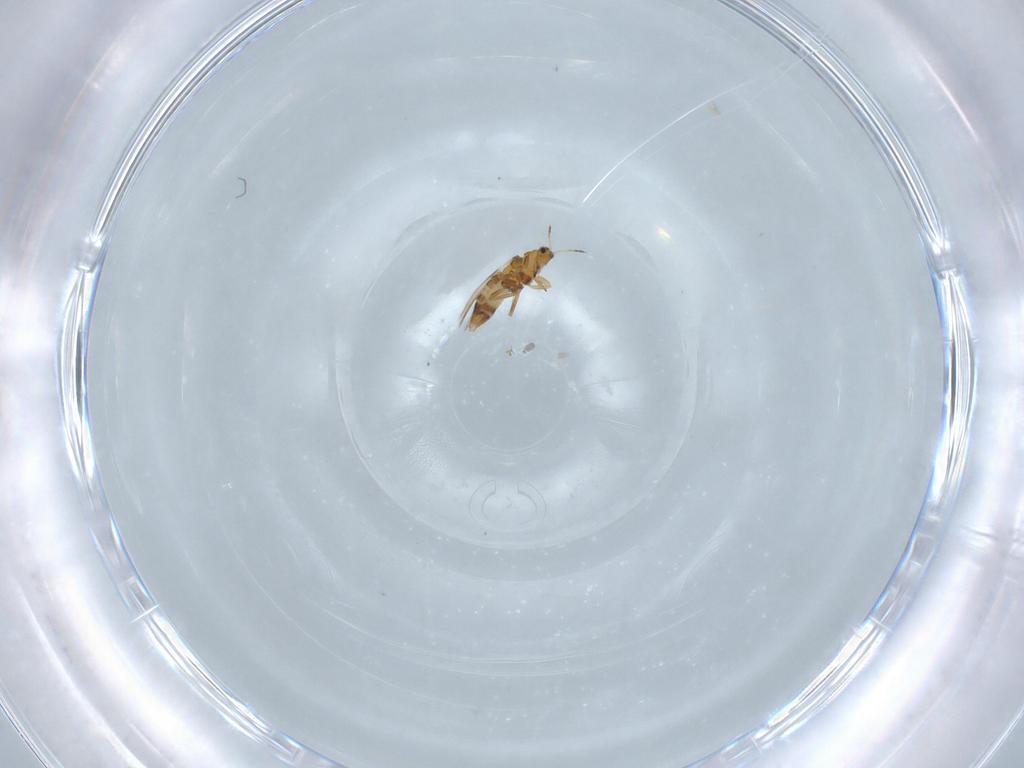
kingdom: Animalia
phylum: Arthropoda
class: Insecta
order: Thysanoptera
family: Thripidae
